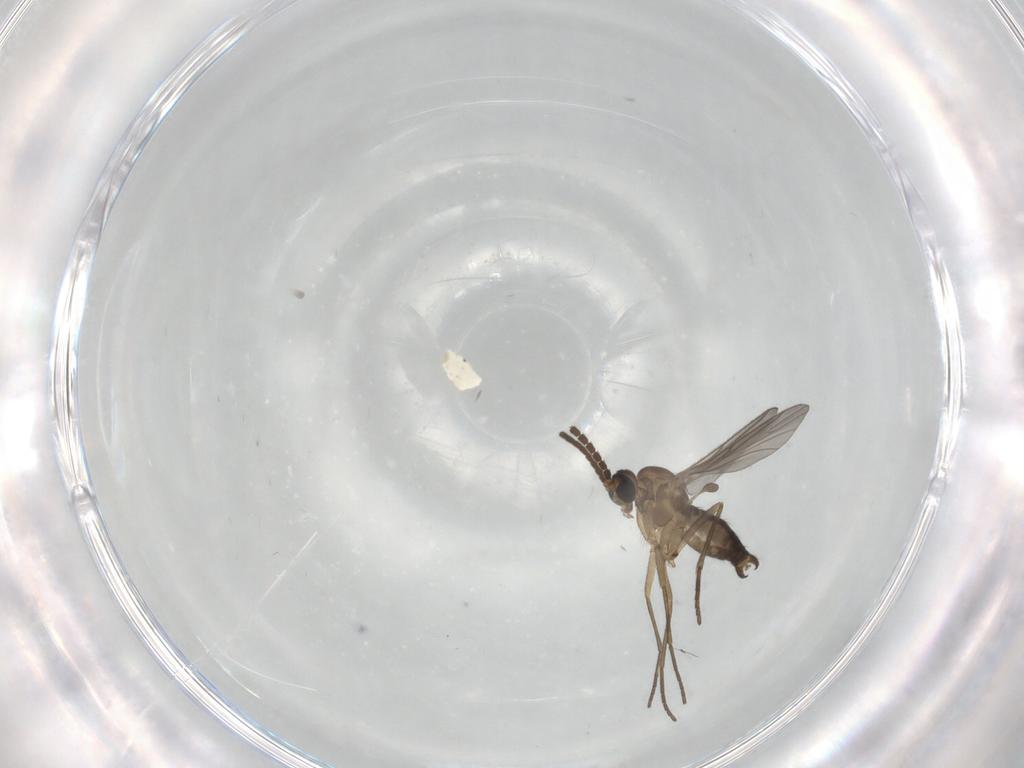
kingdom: Animalia
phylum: Arthropoda
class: Insecta
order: Diptera
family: Sciaridae
